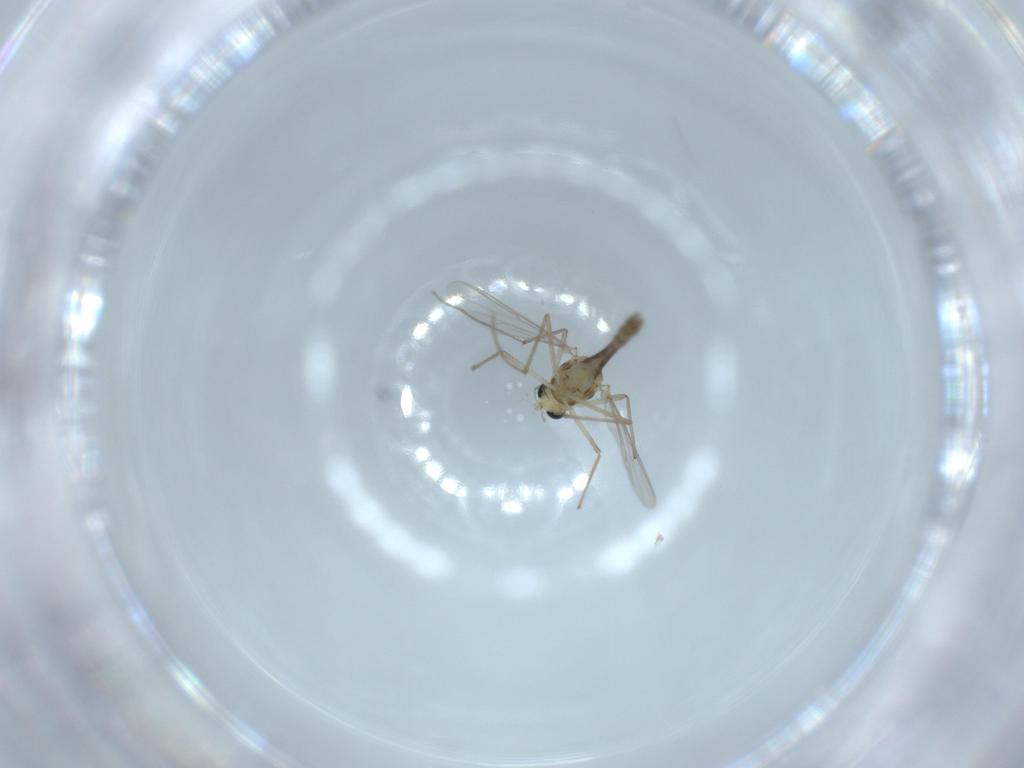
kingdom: Animalia
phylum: Arthropoda
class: Insecta
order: Diptera
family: Chironomidae
